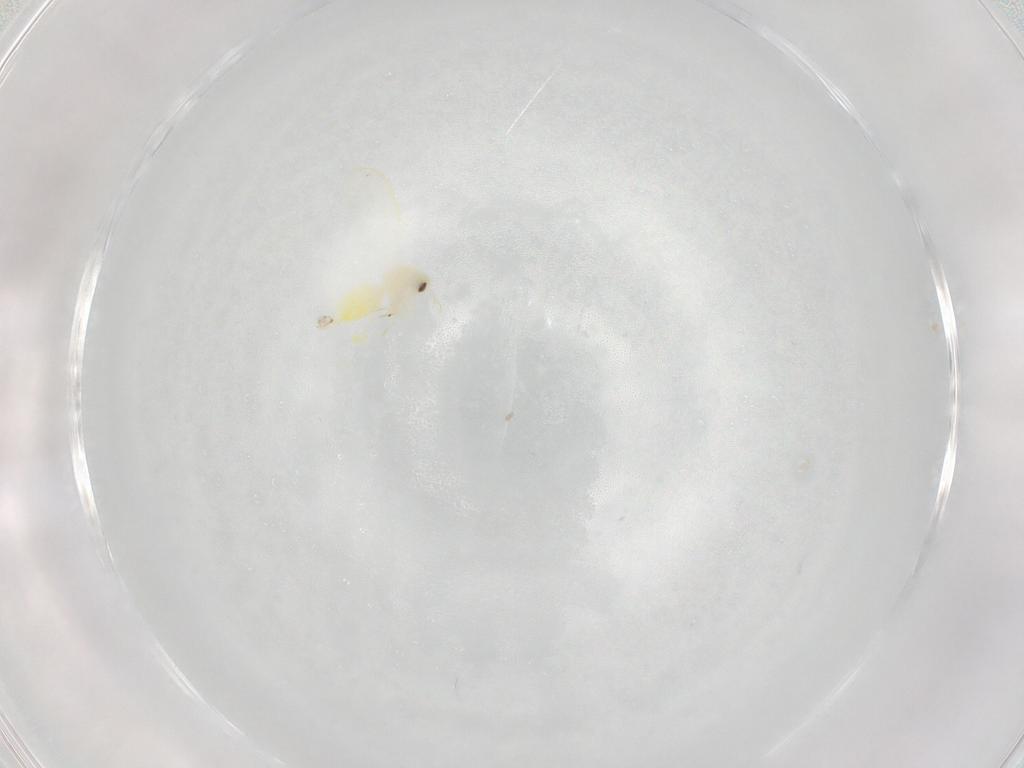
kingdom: Animalia
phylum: Arthropoda
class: Insecta
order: Hemiptera
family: Aleyrodidae
